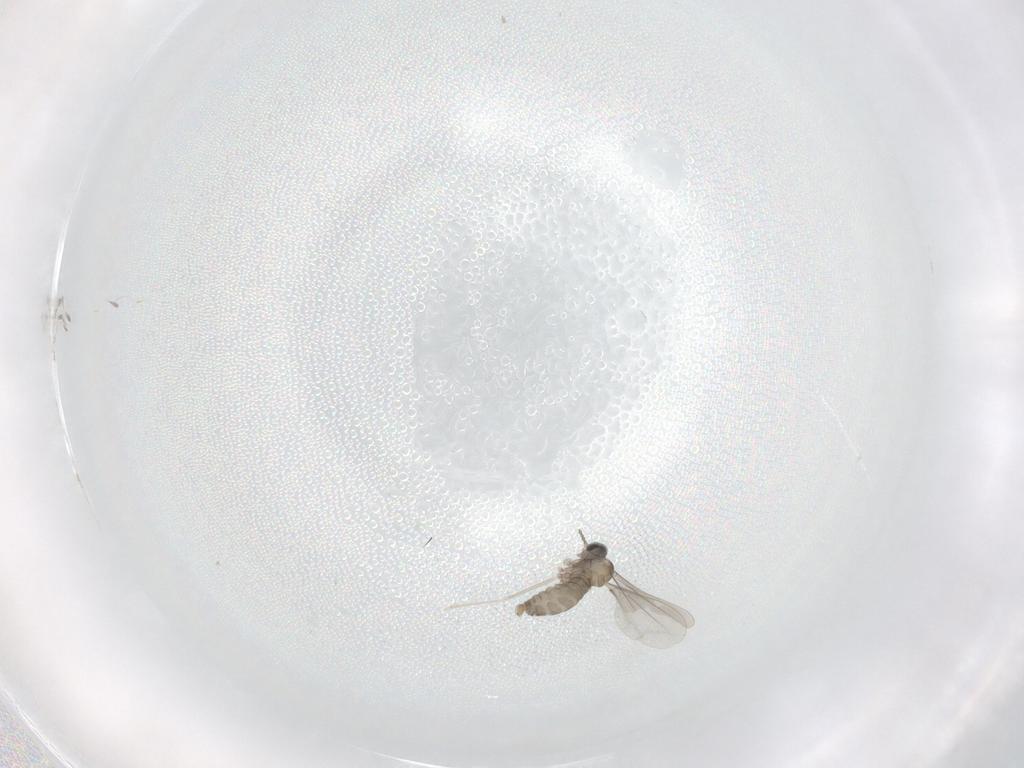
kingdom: Animalia
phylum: Arthropoda
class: Insecta
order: Diptera
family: Cecidomyiidae
